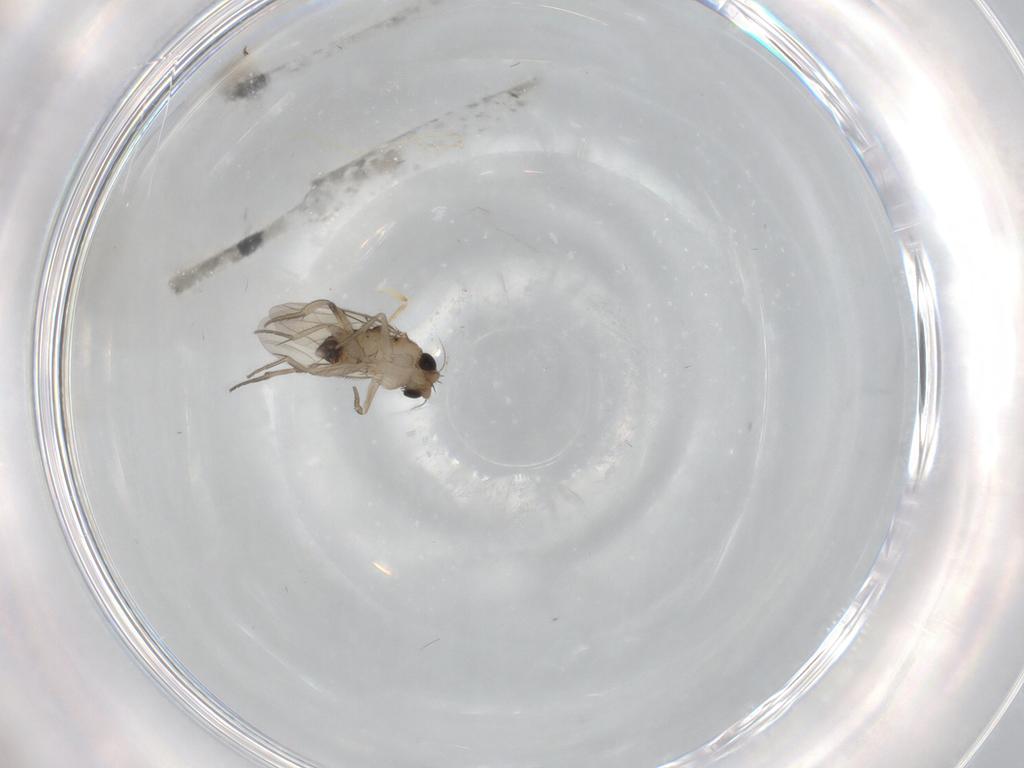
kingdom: Animalia
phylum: Arthropoda
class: Insecta
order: Diptera
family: Phoridae
